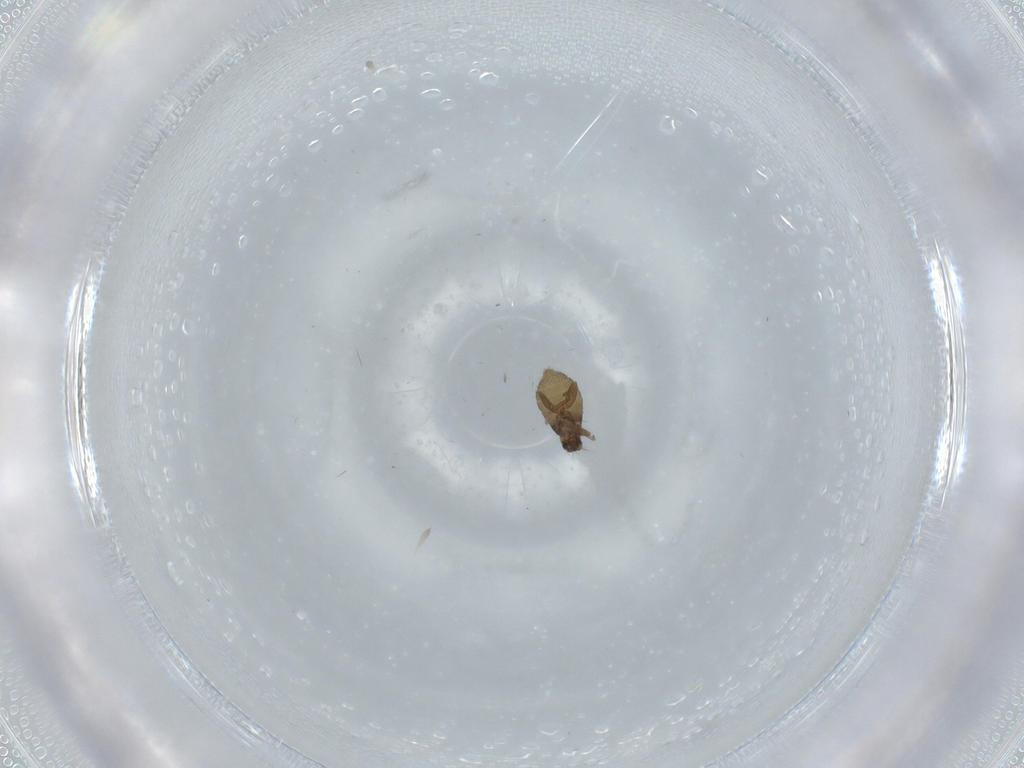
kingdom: Animalia
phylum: Arthropoda
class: Insecta
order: Diptera
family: Phoridae
